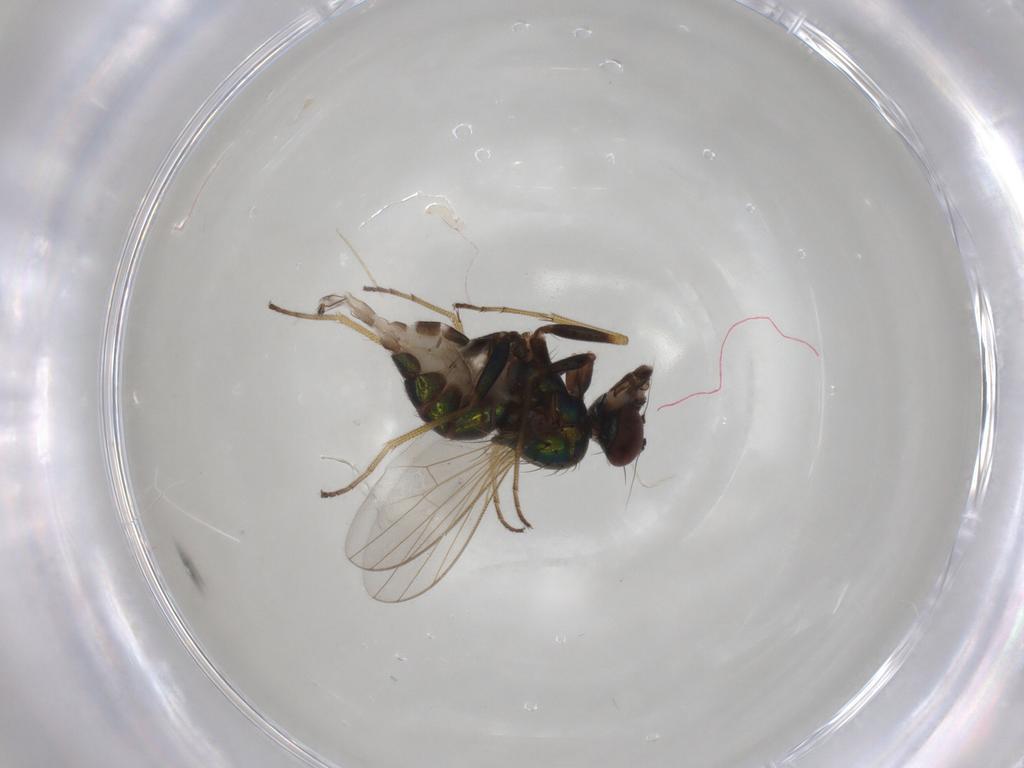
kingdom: Animalia
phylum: Arthropoda
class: Insecta
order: Diptera
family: Dolichopodidae
